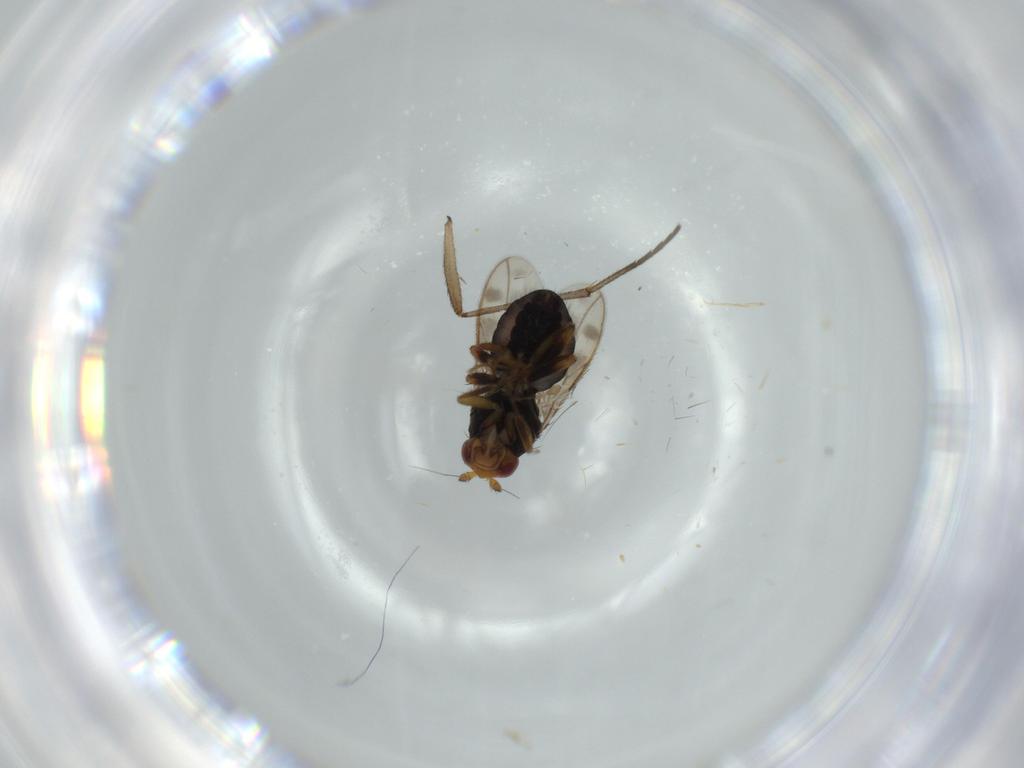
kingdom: Animalia
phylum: Arthropoda
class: Insecta
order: Diptera
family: Sphaeroceridae
